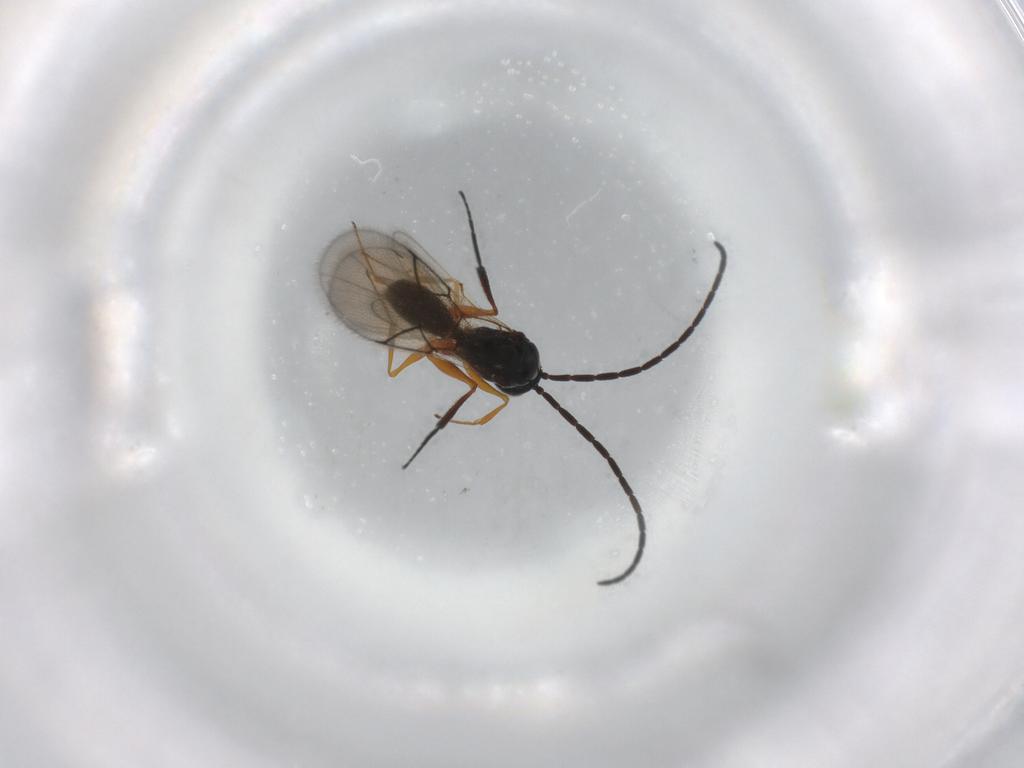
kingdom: Animalia
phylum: Arthropoda
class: Insecta
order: Hymenoptera
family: Figitidae
